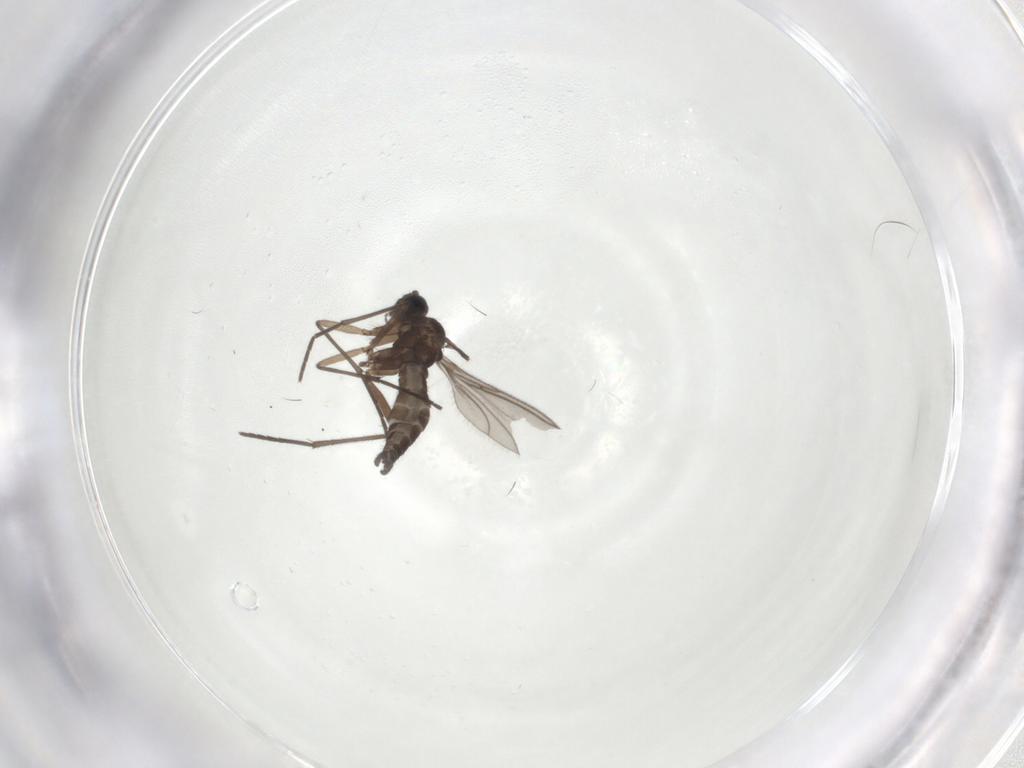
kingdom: Animalia
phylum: Arthropoda
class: Insecta
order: Diptera
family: Sciaridae
